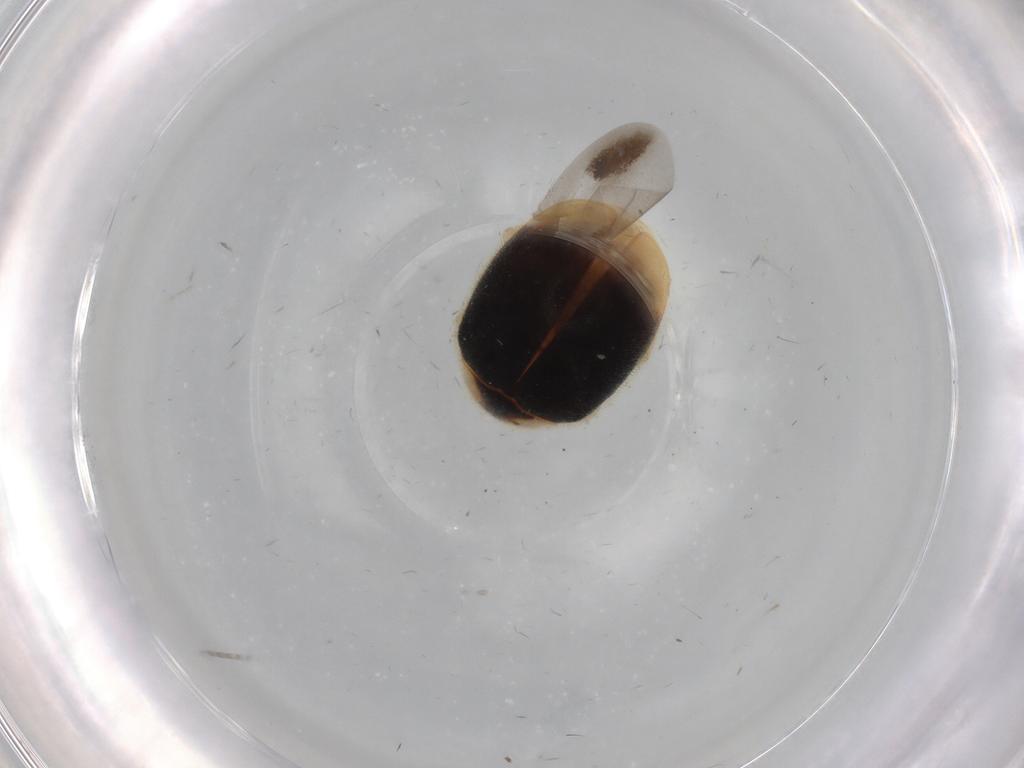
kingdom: Animalia
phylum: Arthropoda
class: Insecta
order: Coleoptera
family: Coccinellidae
